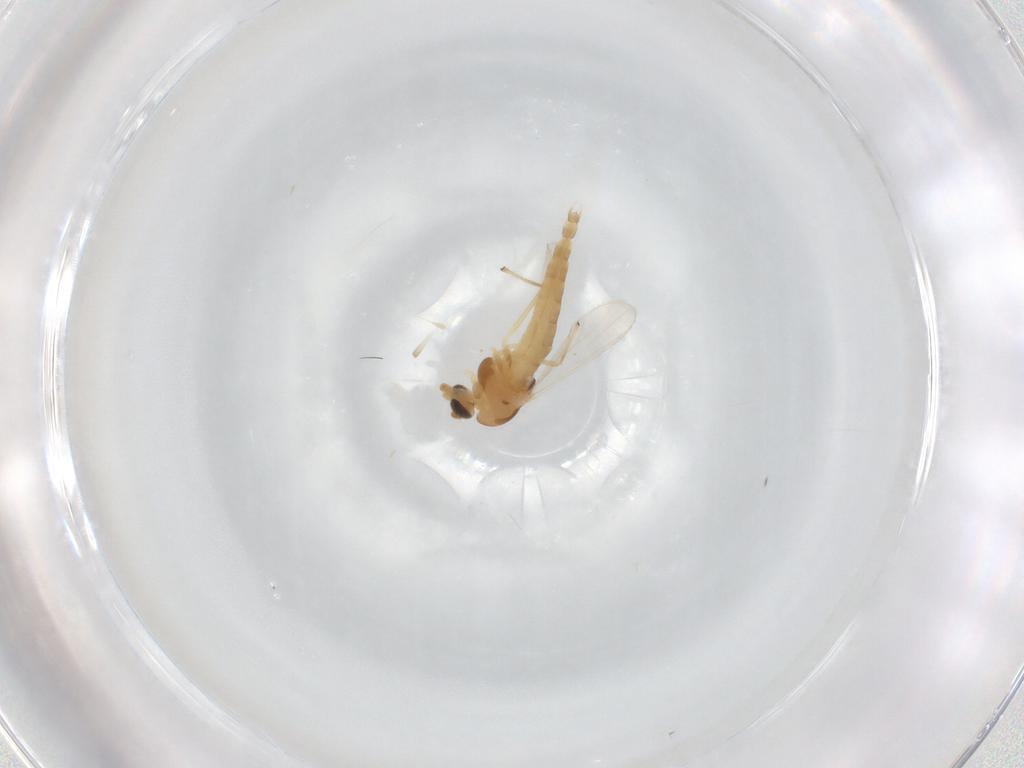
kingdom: Animalia
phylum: Arthropoda
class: Insecta
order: Diptera
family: Chironomidae
